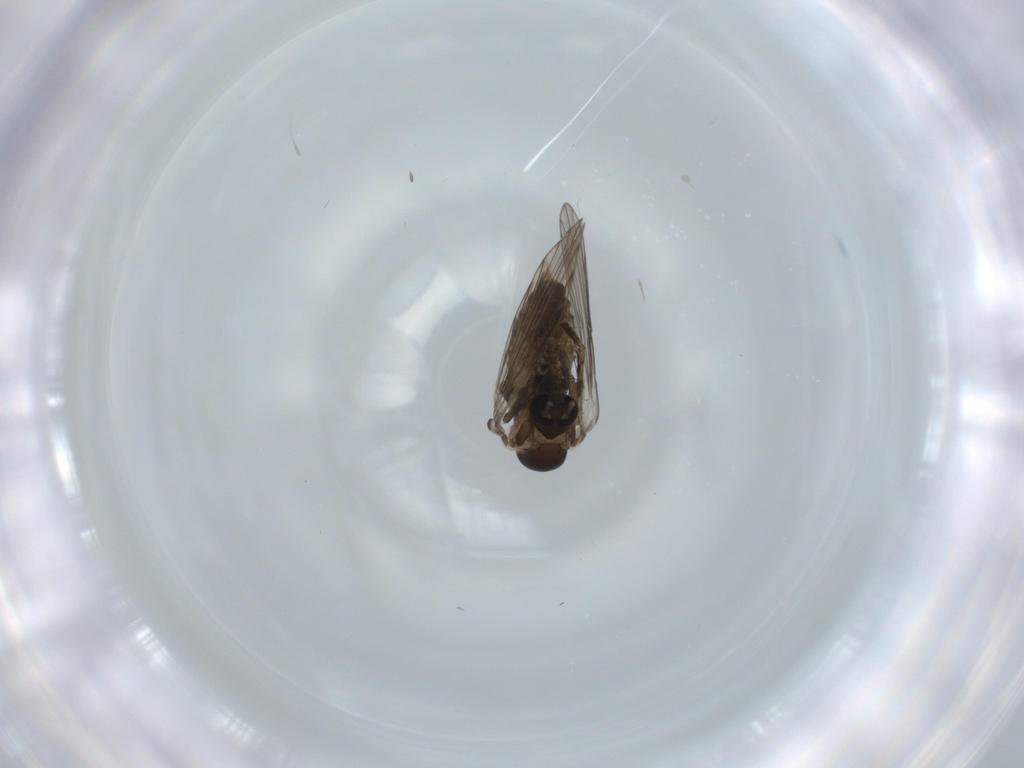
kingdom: Animalia
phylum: Arthropoda
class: Insecta
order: Diptera
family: Psychodidae
